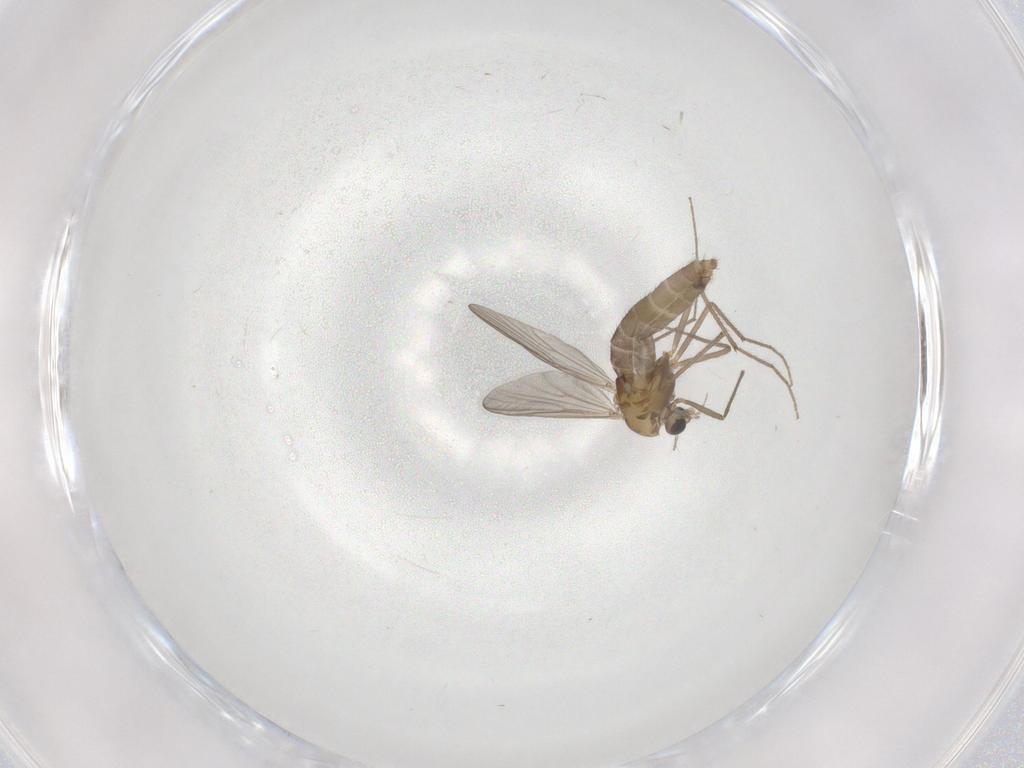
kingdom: Animalia
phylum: Arthropoda
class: Insecta
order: Diptera
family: Chironomidae
